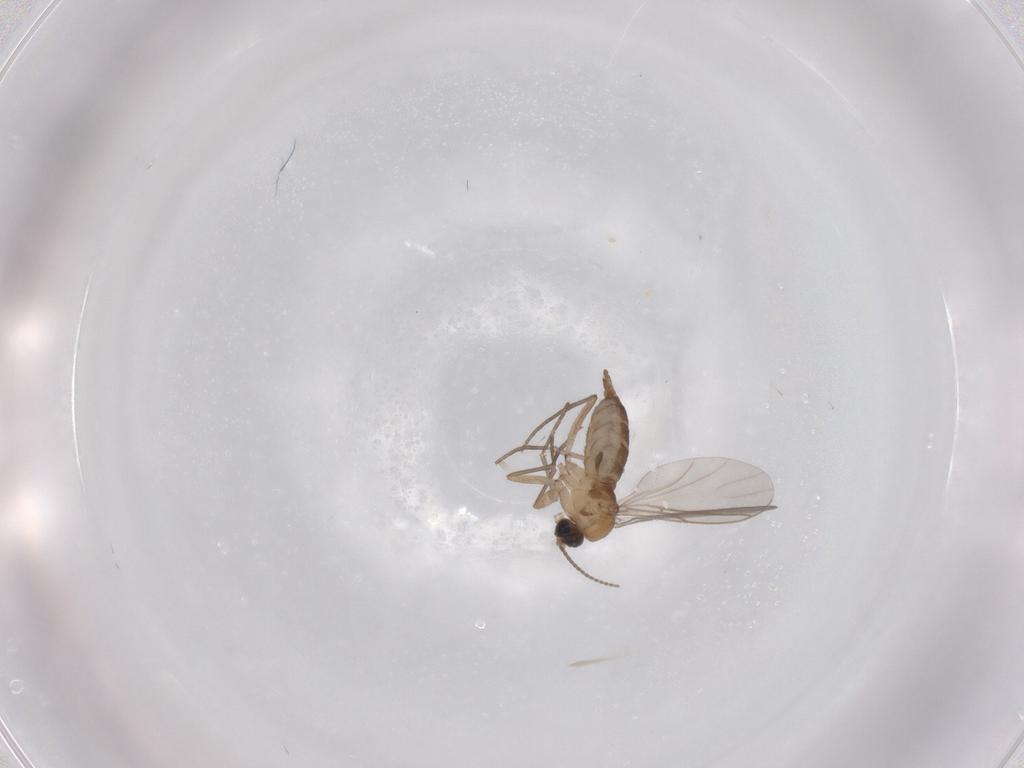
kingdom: Animalia
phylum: Arthropoda
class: Insecta
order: Diptera
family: Sciaridae
